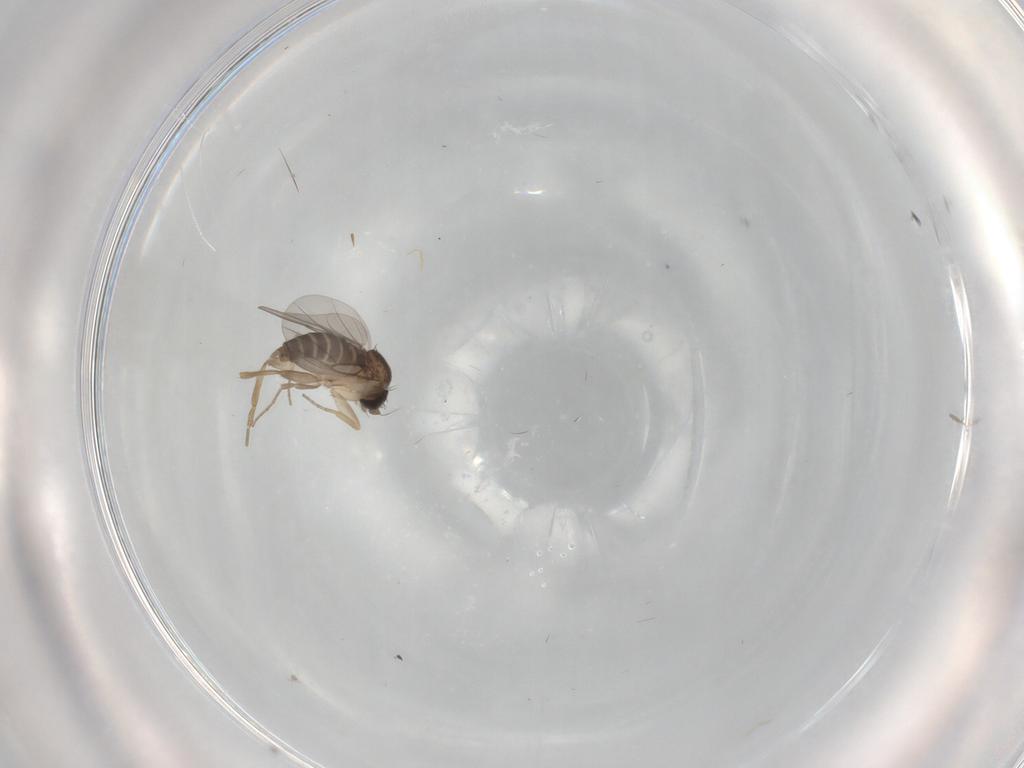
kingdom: Animalia
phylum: Arthropoda
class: Insecta
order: Diptera
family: Phoridae
